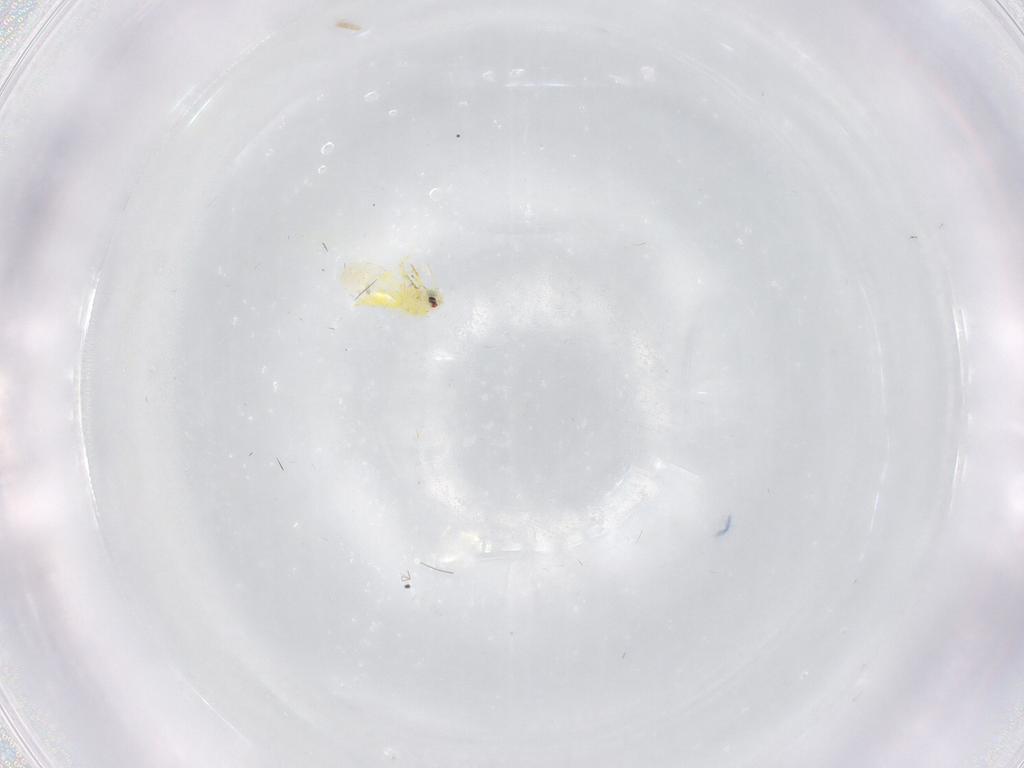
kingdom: Animalia
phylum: Arthropoda
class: Insecta
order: Hemiptera
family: Aleyrodidae
